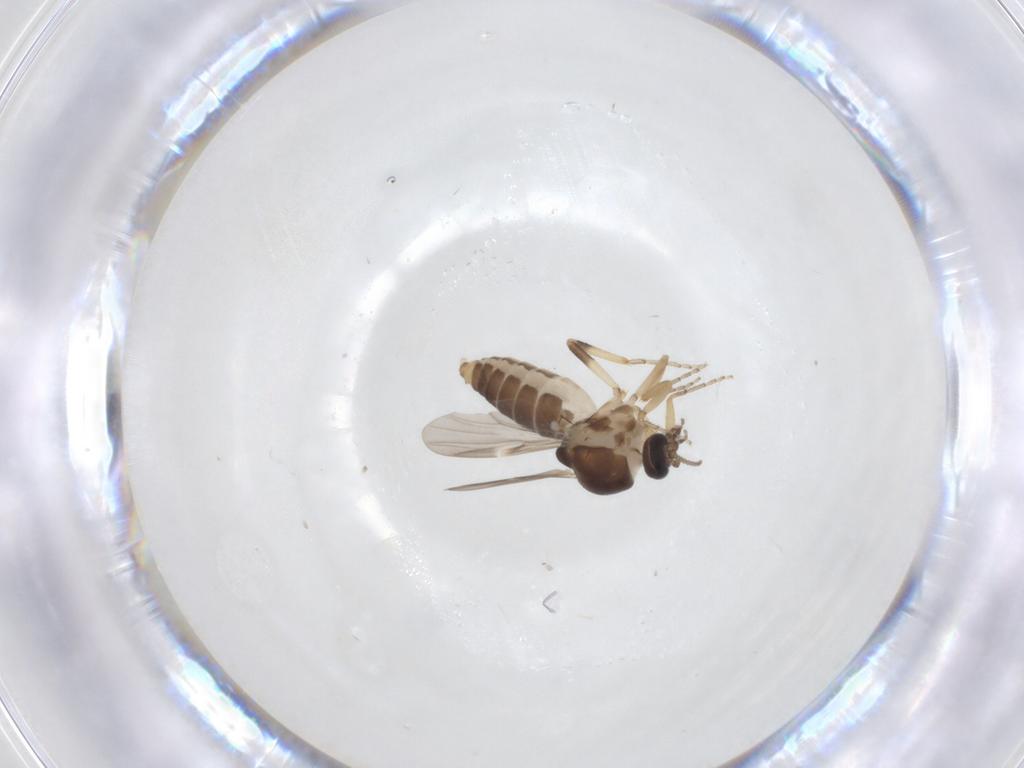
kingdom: Animalia
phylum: Arthropoda
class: Insecta
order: Diptera
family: Ceratopogonidae
